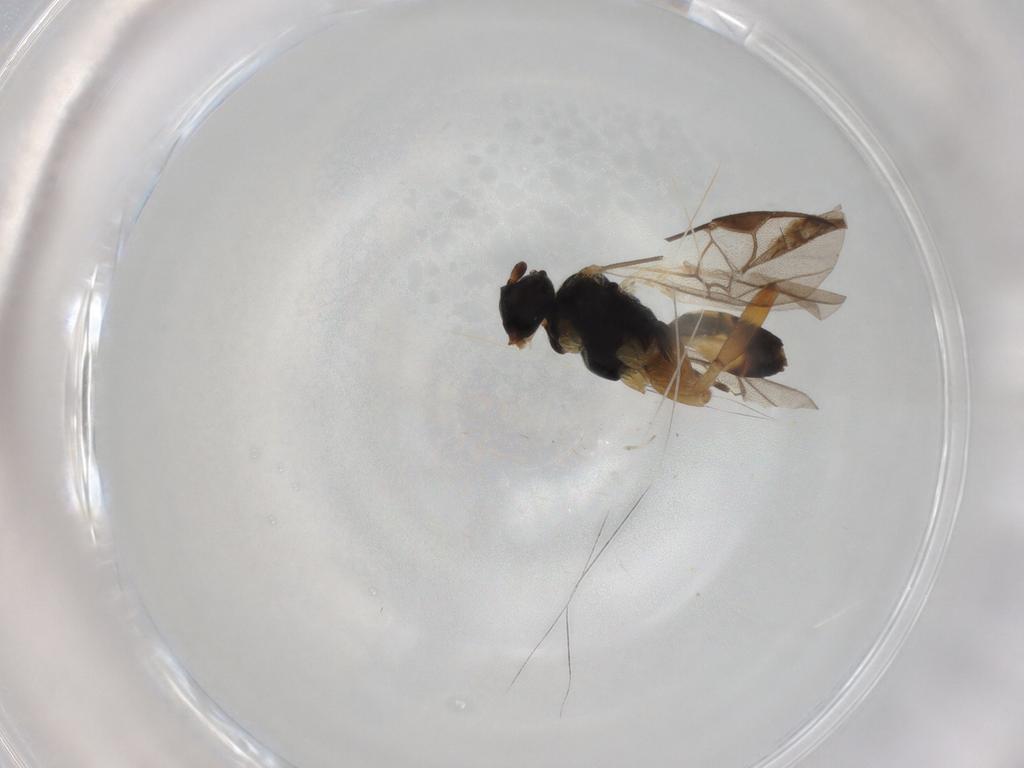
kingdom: Animalia
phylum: Arthropoda
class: Insecta
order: Hymenoptera
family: Braconidae
